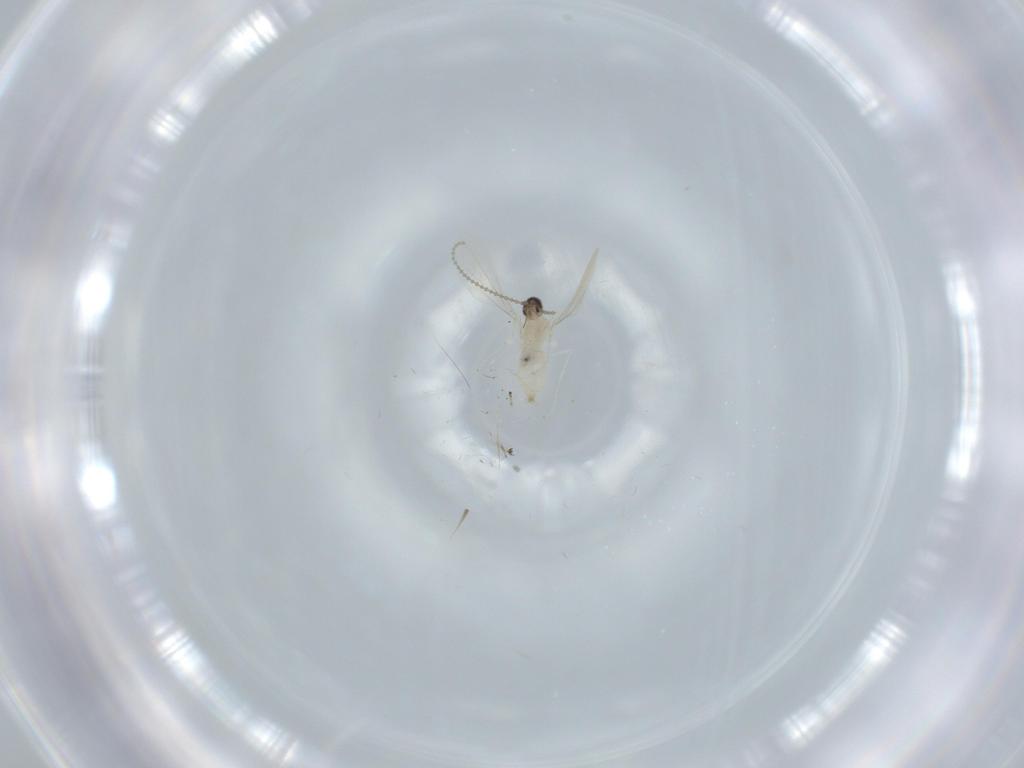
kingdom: Animalia
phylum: Arthropoda
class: Insecta
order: Diptera
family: Cecidomyiidae
